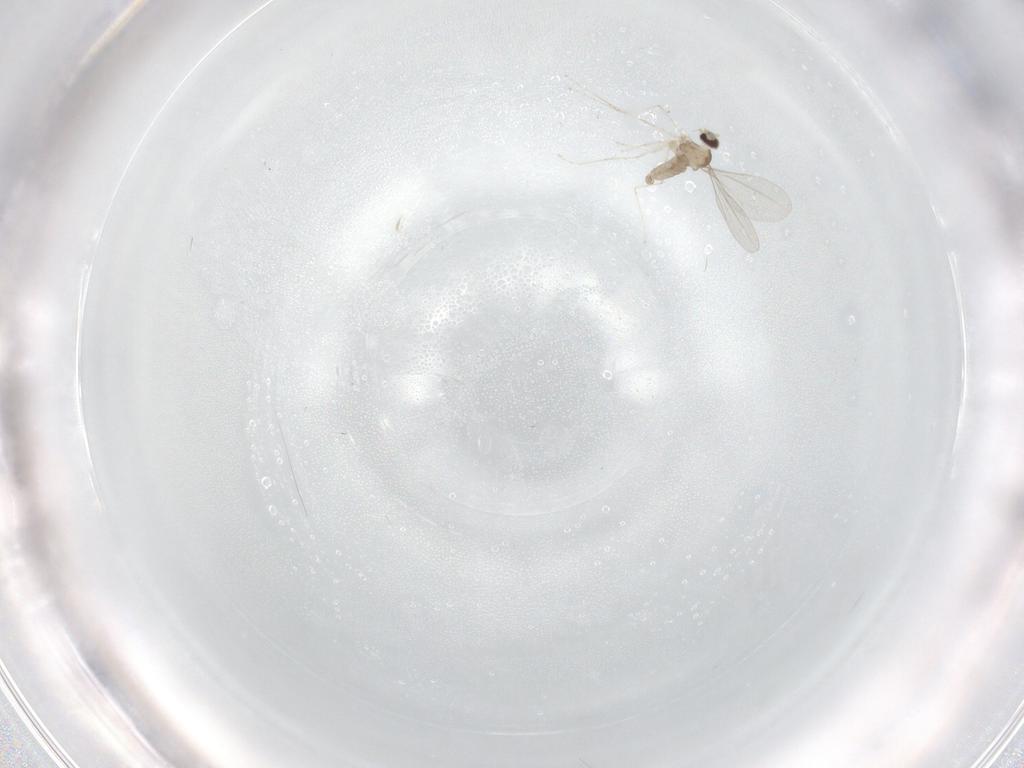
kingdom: Animalia
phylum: Arthropoda
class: Insecta
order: Diptera
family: Cecidomyiidae
